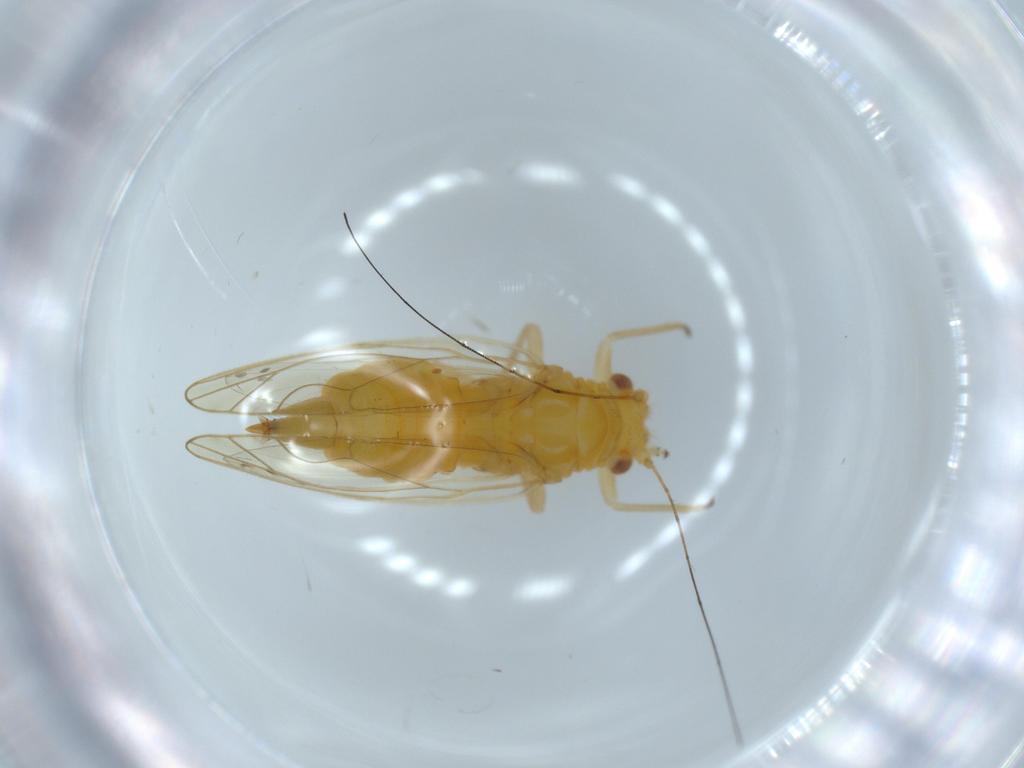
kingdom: Animalia
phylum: Arthropoda
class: Insecta
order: Hemiptera
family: Psyllidae
